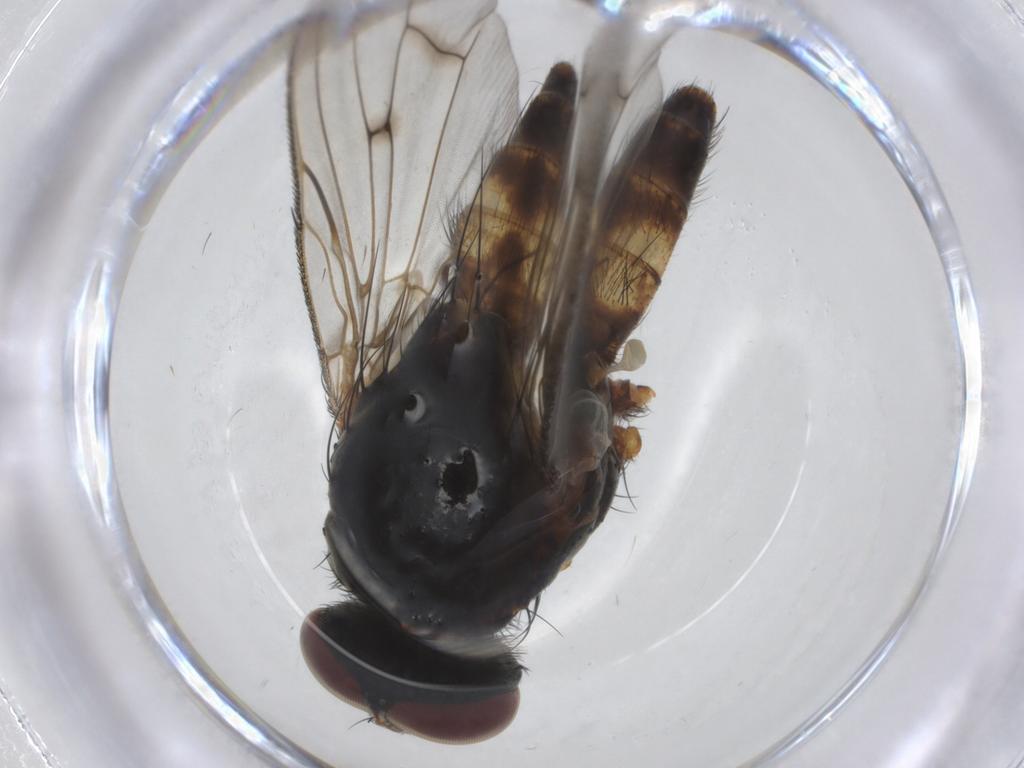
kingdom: Animalia
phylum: Arthropoda
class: Insecta
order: Diptera
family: Anthomyiidae
